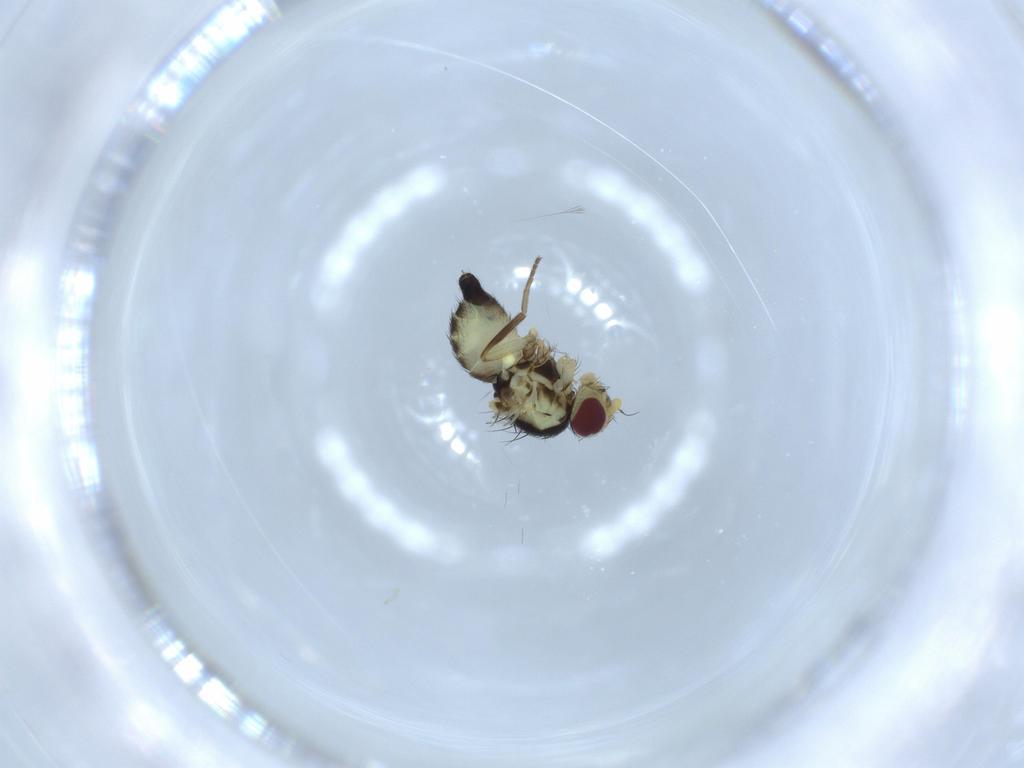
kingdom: Animalia
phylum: Arthropoda
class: Insecta
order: Diptera
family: Agromyzidae
